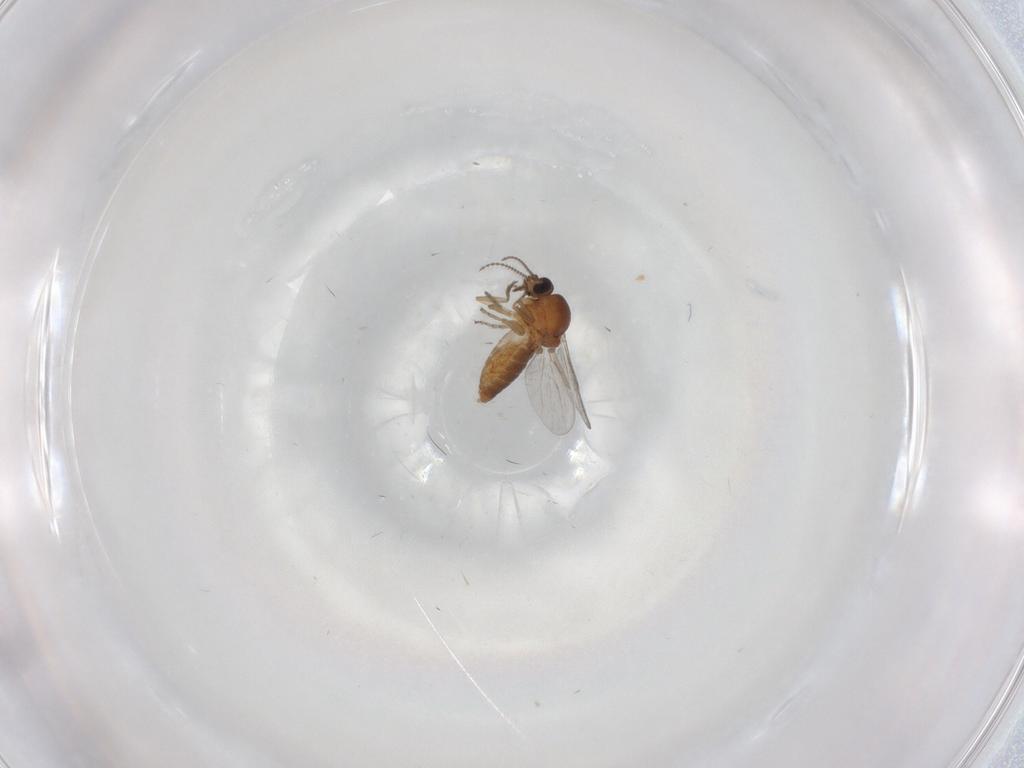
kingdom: Animalia
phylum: Arthropoda
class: Insecta
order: Diptera
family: Ceratopogonidae
